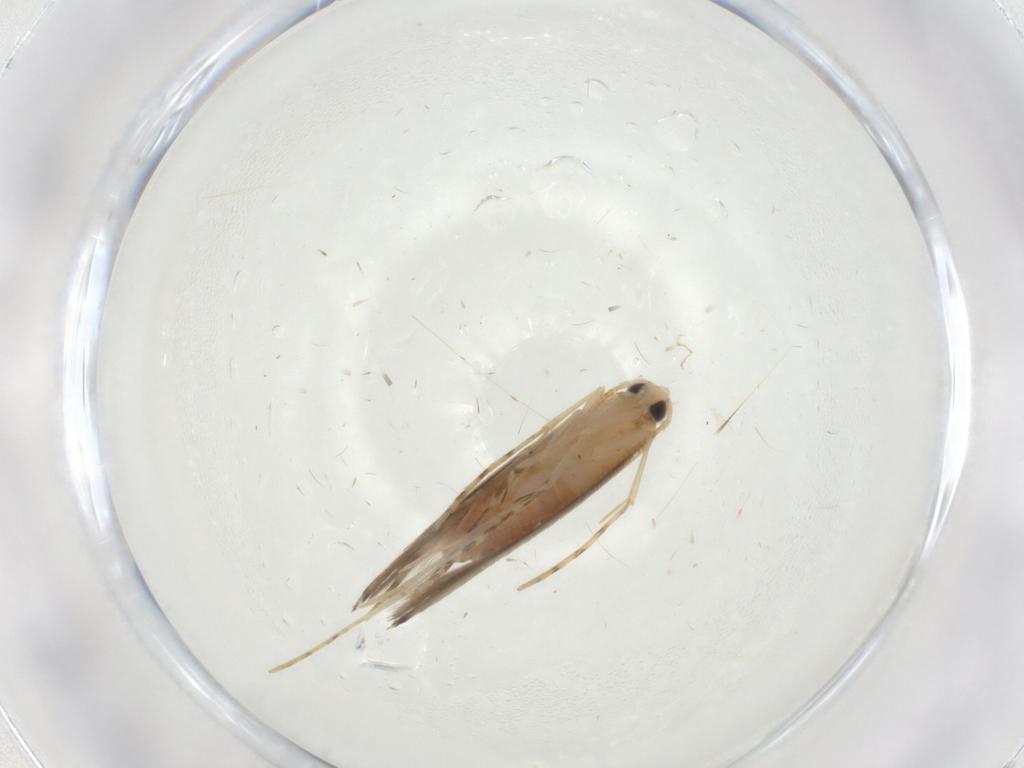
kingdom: Animalia
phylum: Arthropoda
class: Insecta
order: Lepidoptera
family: Gracillariidae
